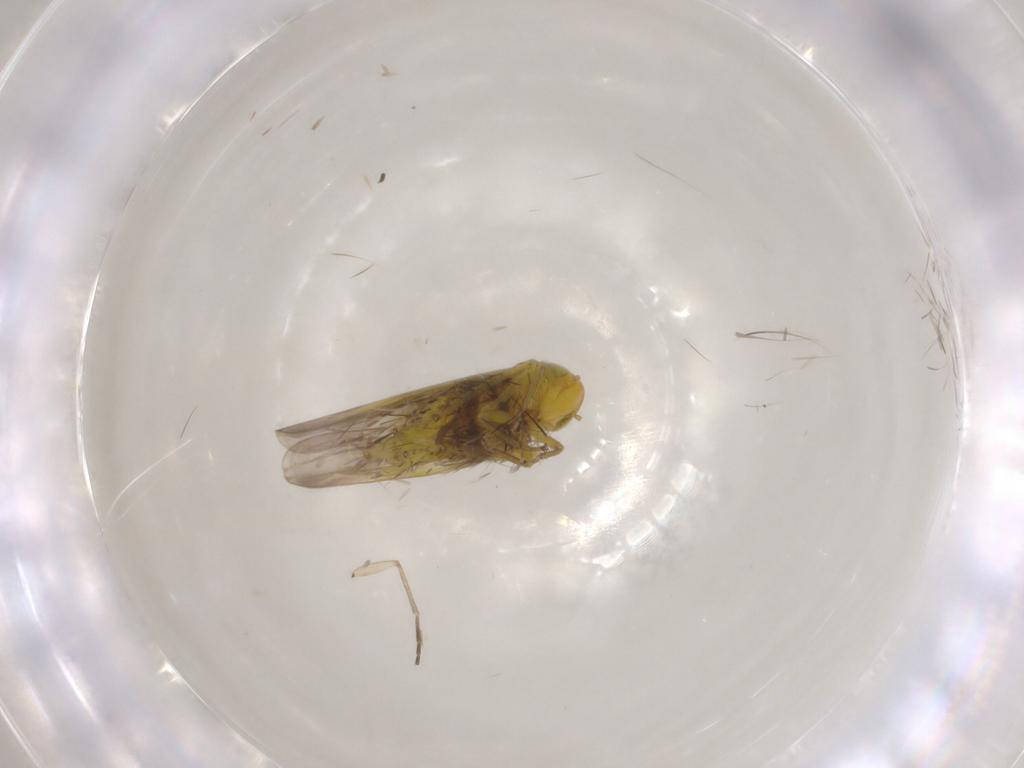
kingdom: Animalia
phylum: Arthropoda
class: Insecta
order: Hemiptera
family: Cicadellidae
